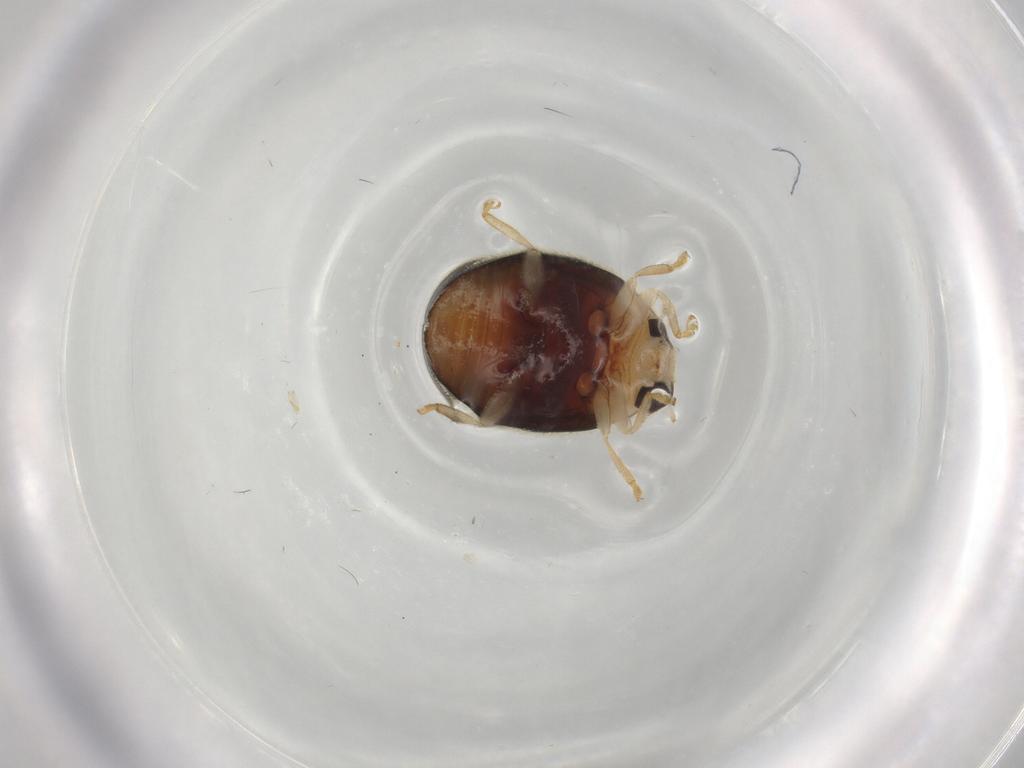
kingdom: Animalia
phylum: Arthropoda
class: Insecta
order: Coleoptera
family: Coccinellidae
